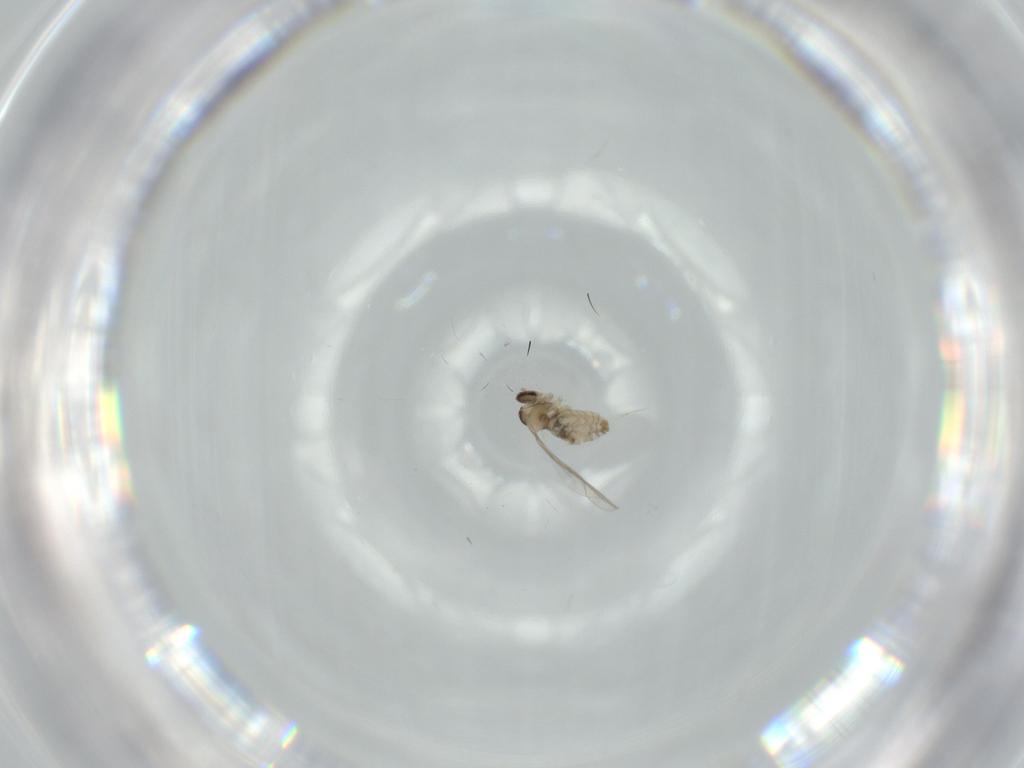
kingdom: Animalia
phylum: Arthropoda
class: Insecta
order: Diptera
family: Cecidomyiidae
